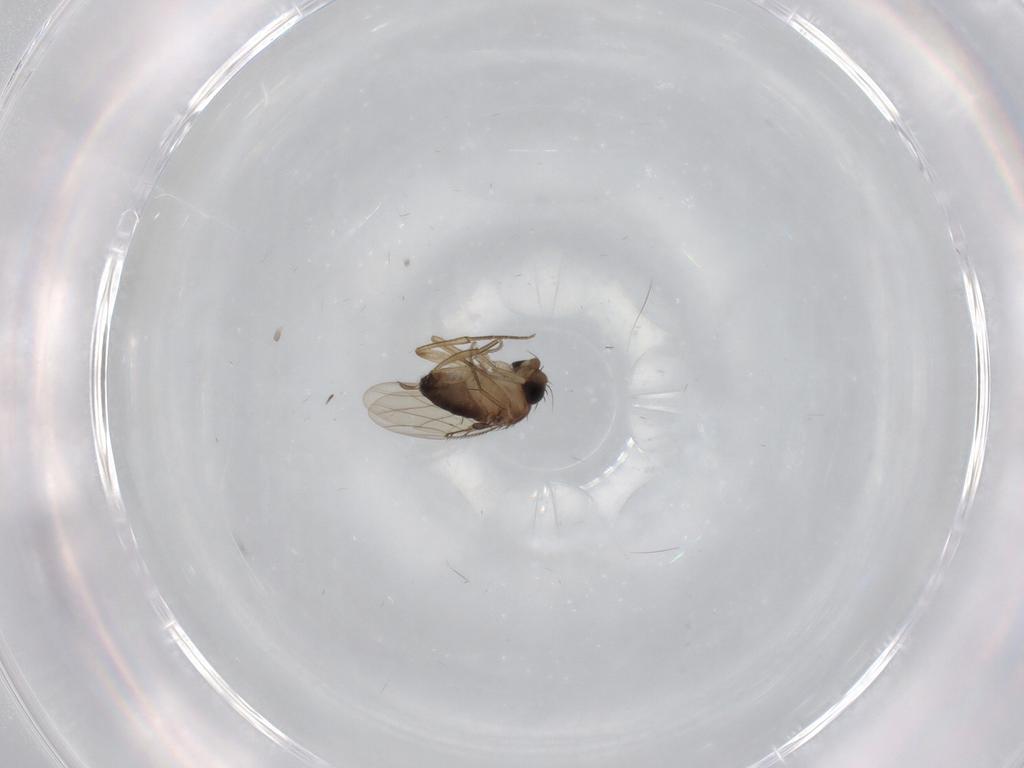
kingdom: Animalia
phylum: Arthropoda
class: Insecta
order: Diptera
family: Phoridae
